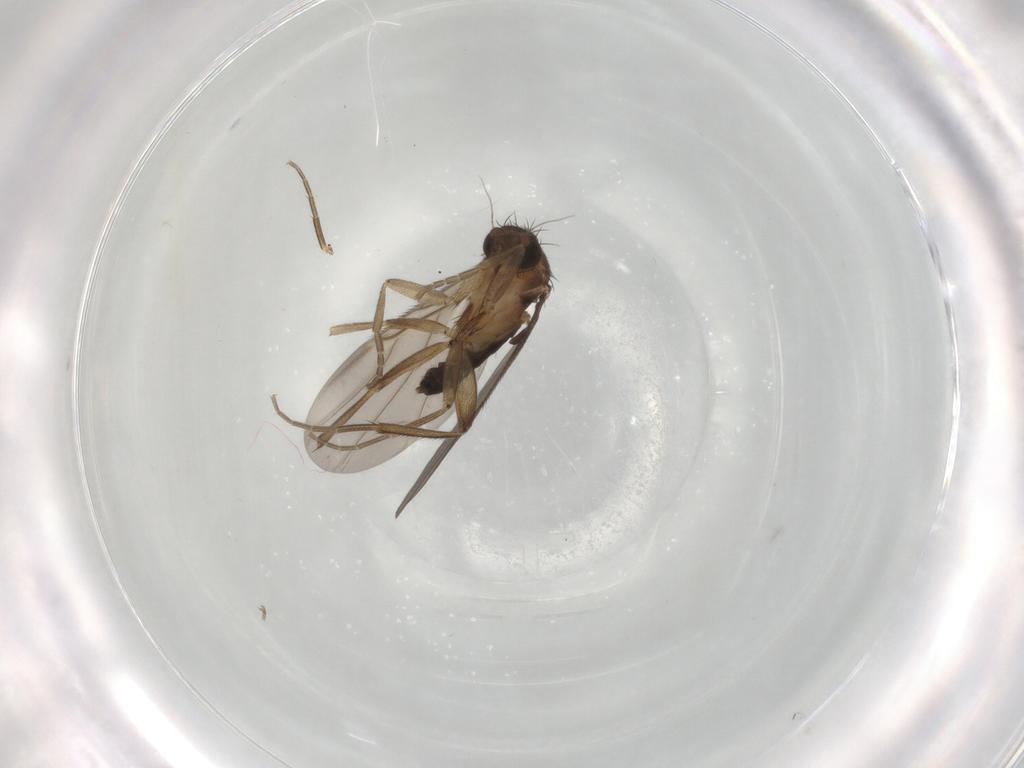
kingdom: Animalia
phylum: Arthropoda
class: Insecta
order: Diptera
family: Phoridae
